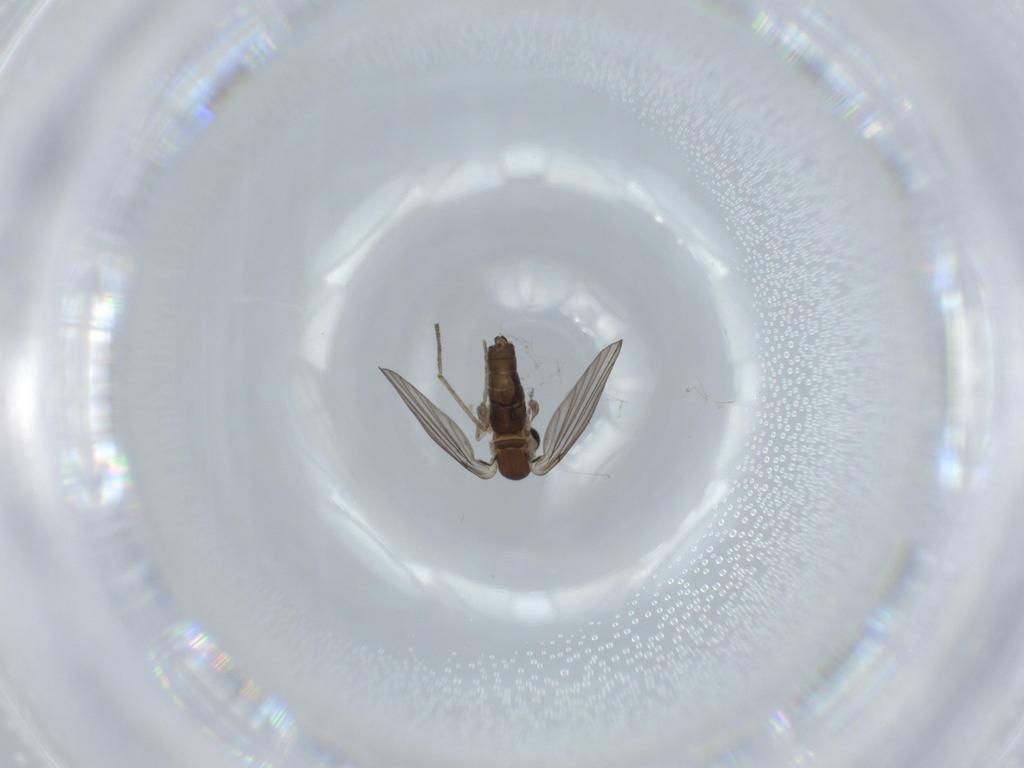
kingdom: Animalia
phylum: Arthropoda
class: Insecta
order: Diptera
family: Psychodidae
